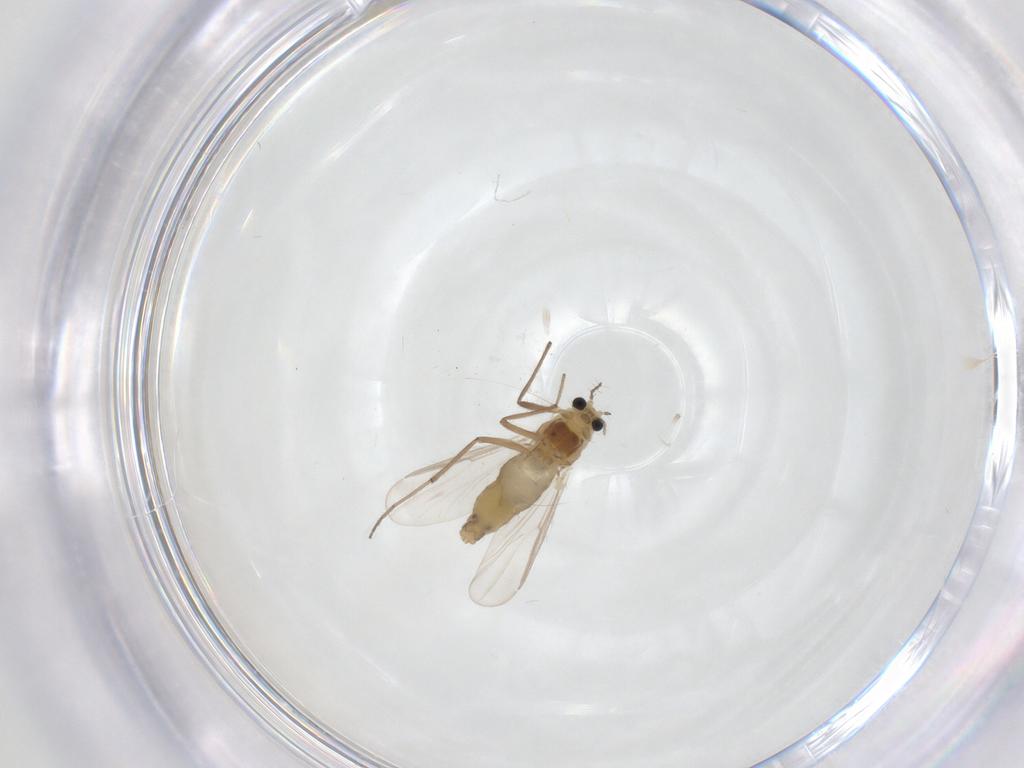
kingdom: Animalia
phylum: Arthropoda
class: Insecta
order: Diptera
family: Chironomidae
